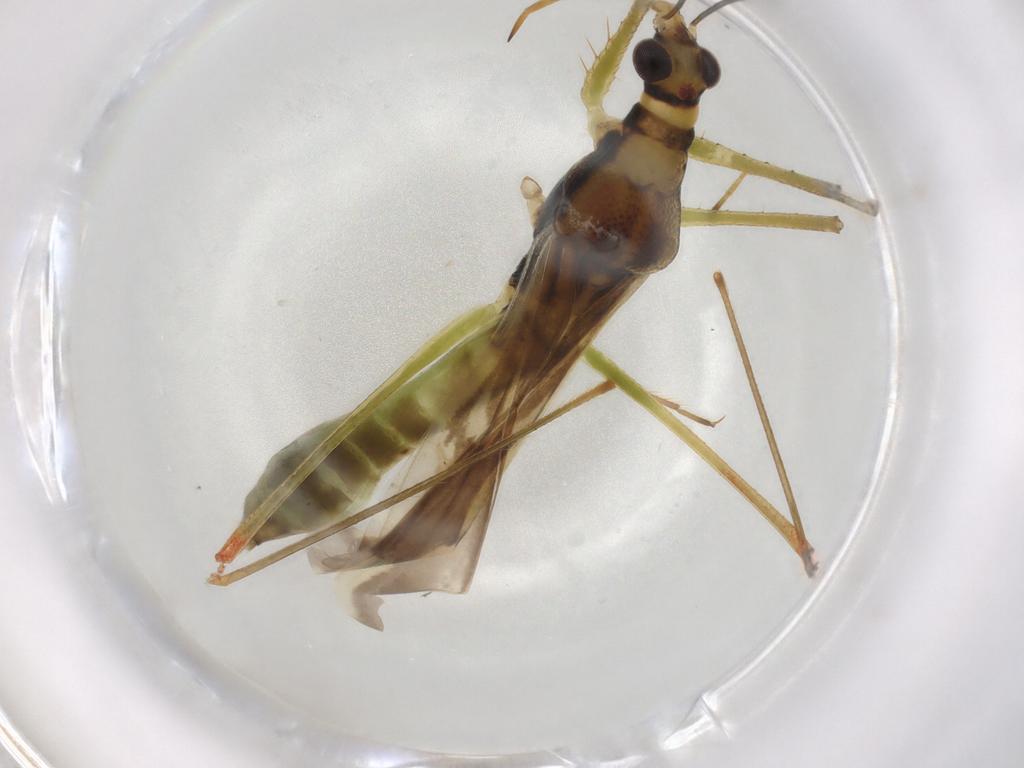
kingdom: Animalia
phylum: Arthropoda
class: Insecta
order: Hemiptera
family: Nabidae
